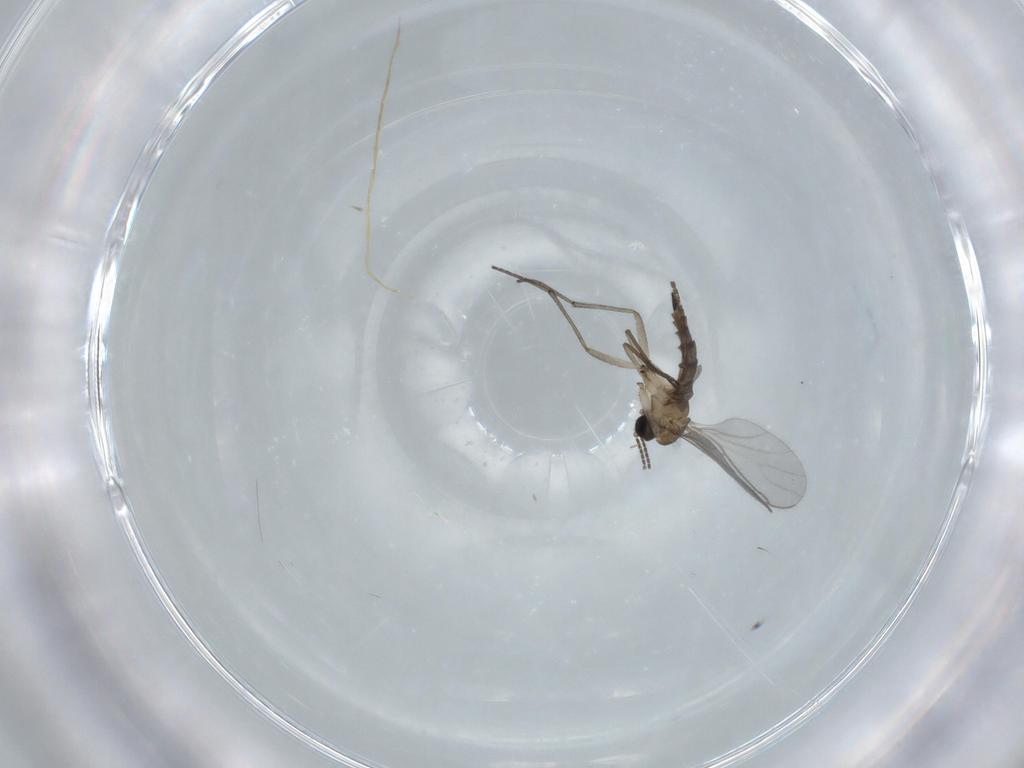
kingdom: Animalia
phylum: Arthropoda
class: Insecta
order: Diptera
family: Sciaridae
